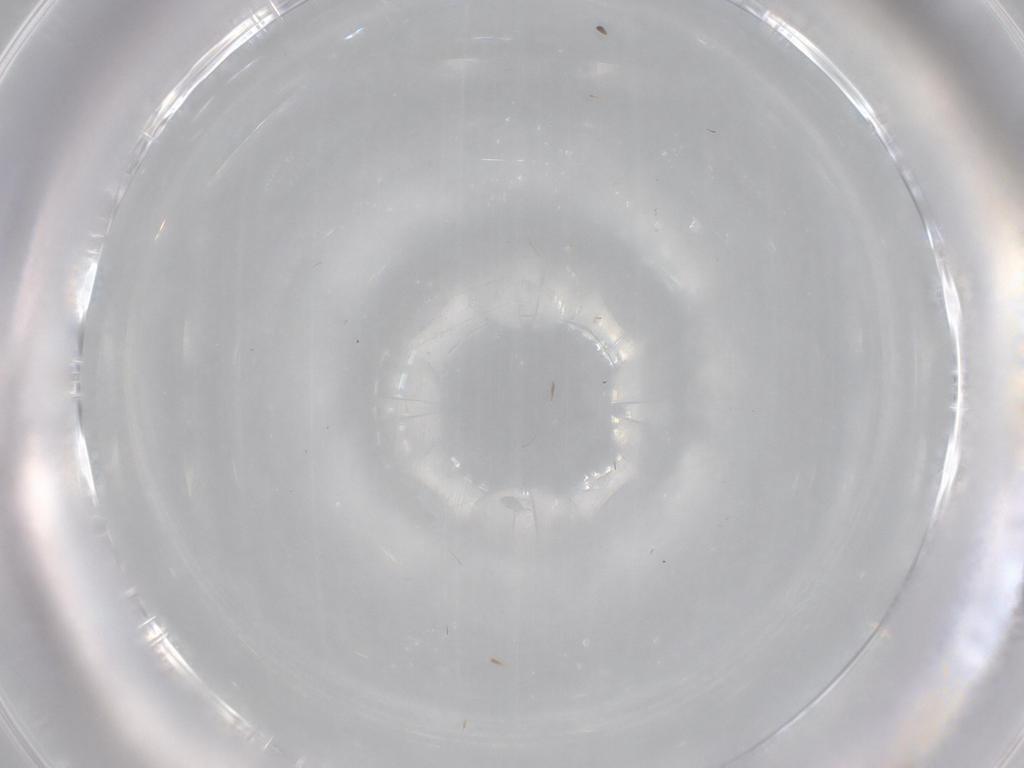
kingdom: Animalia
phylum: Arthropoda
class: Insecta
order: Diptera
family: Cecidomyiidae
